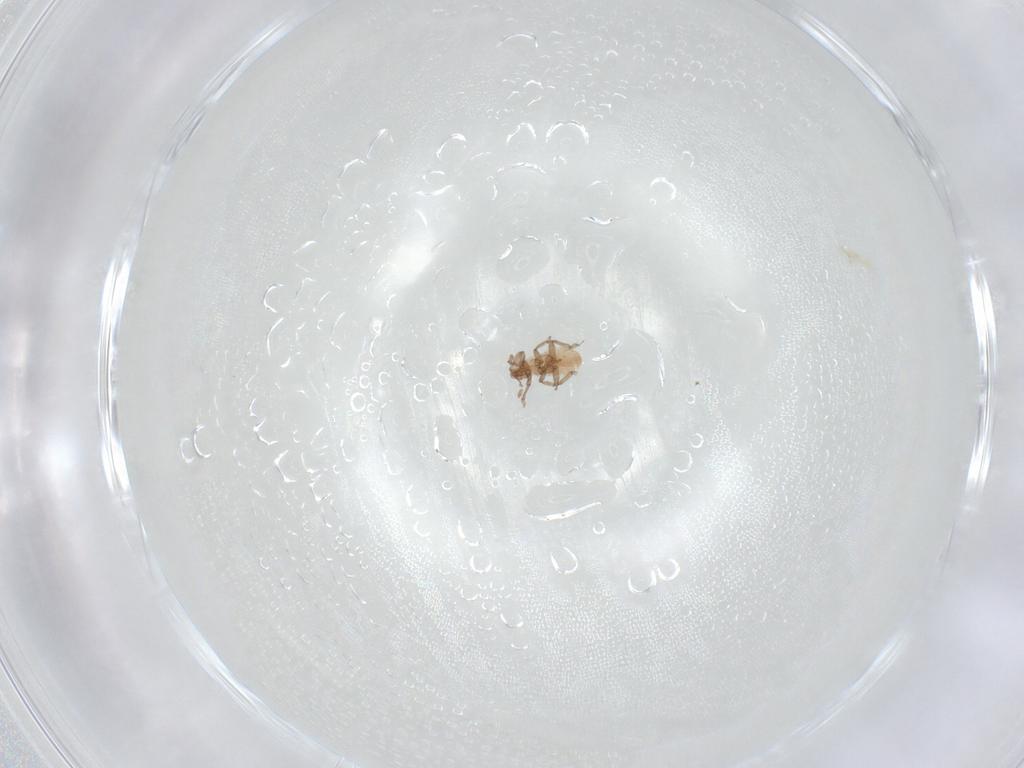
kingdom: Animalia
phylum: Arthropoda
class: Insecta
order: Hemiptera
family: Aphididae
